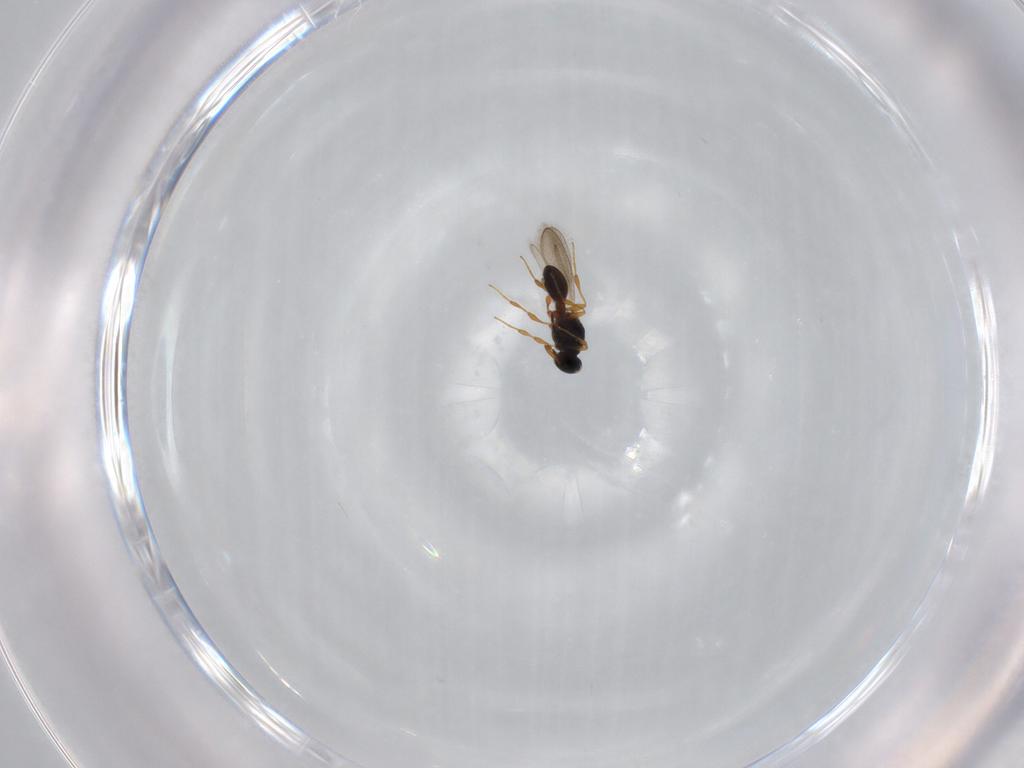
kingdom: Animalia
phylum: Arthropoda
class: Insecta
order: Hymenoptera
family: Platygastridae
